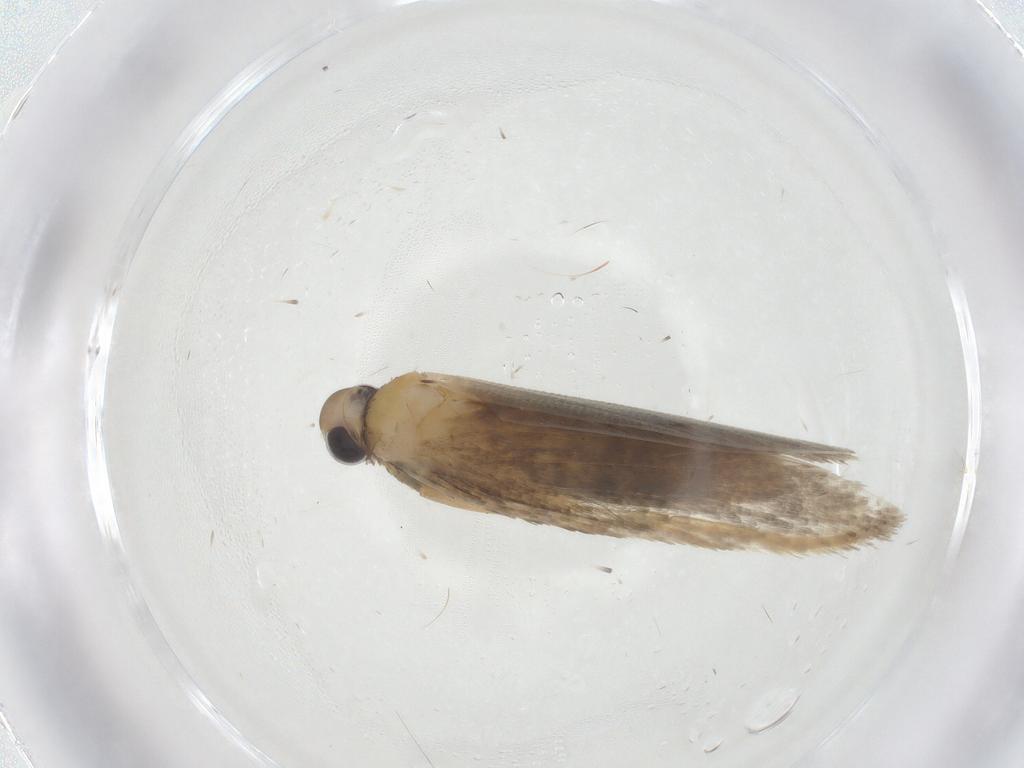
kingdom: Animalia
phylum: Arthropoda
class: Insecta
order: Lepidoptera
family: Autostichidae
